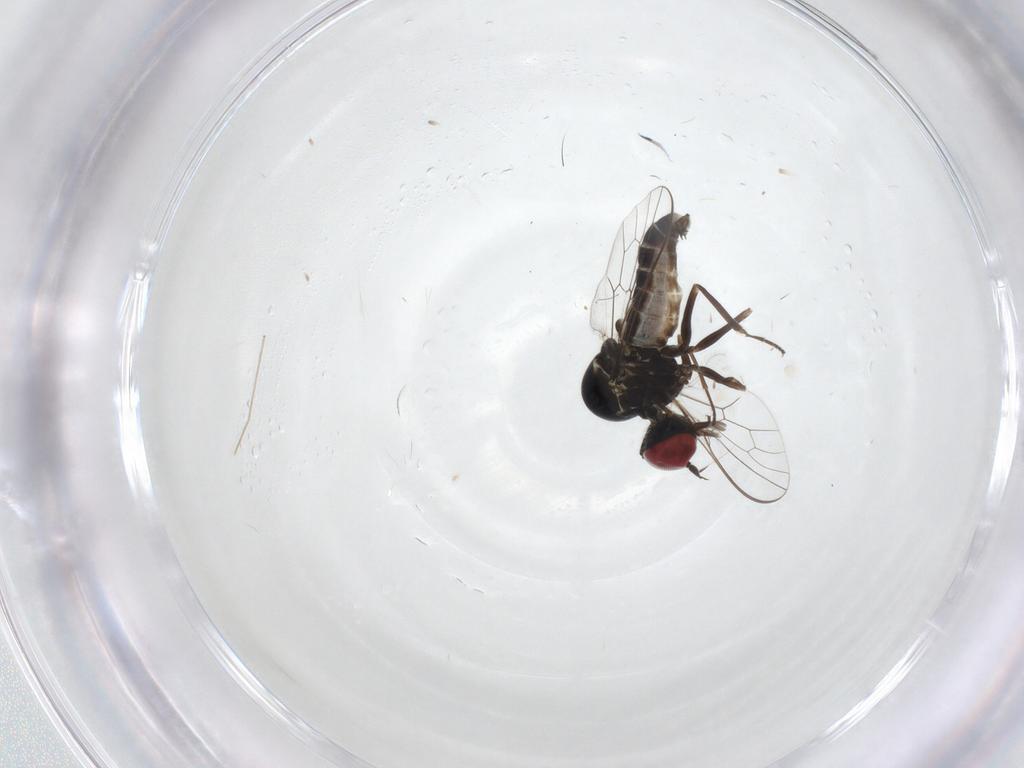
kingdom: Animalia
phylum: Arthropoda
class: Insecta
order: Diptera
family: Bombyliidae
